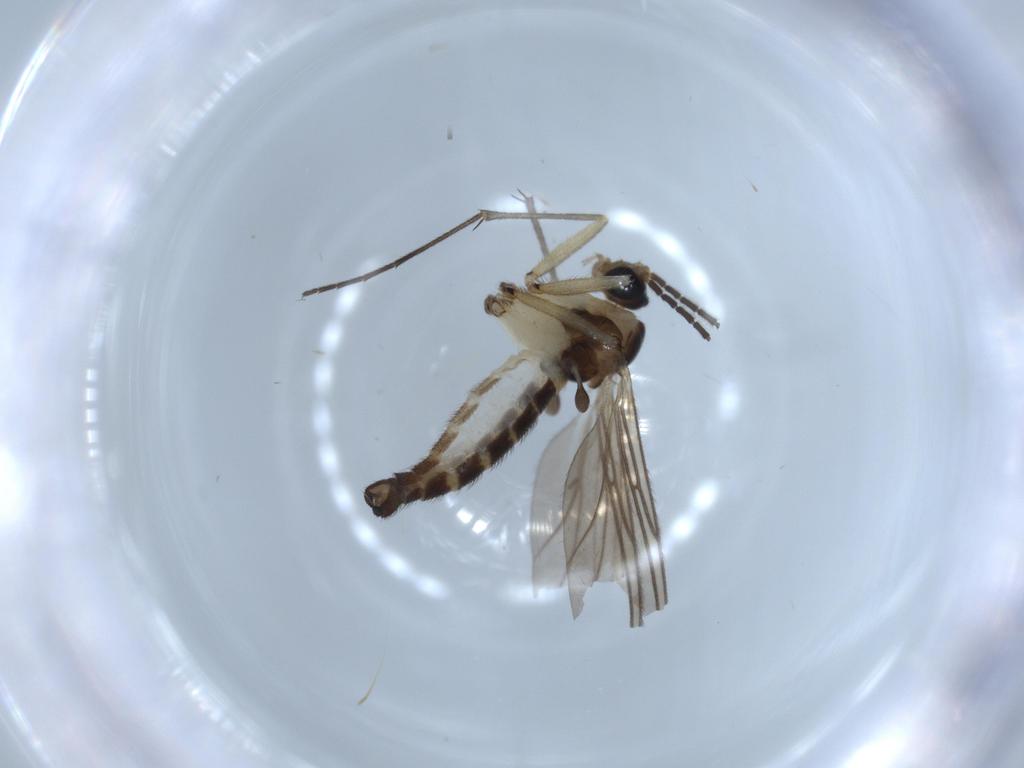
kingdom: Animalia
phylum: Arthropoda
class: Insecta
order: Diptera
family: Sciaridae
